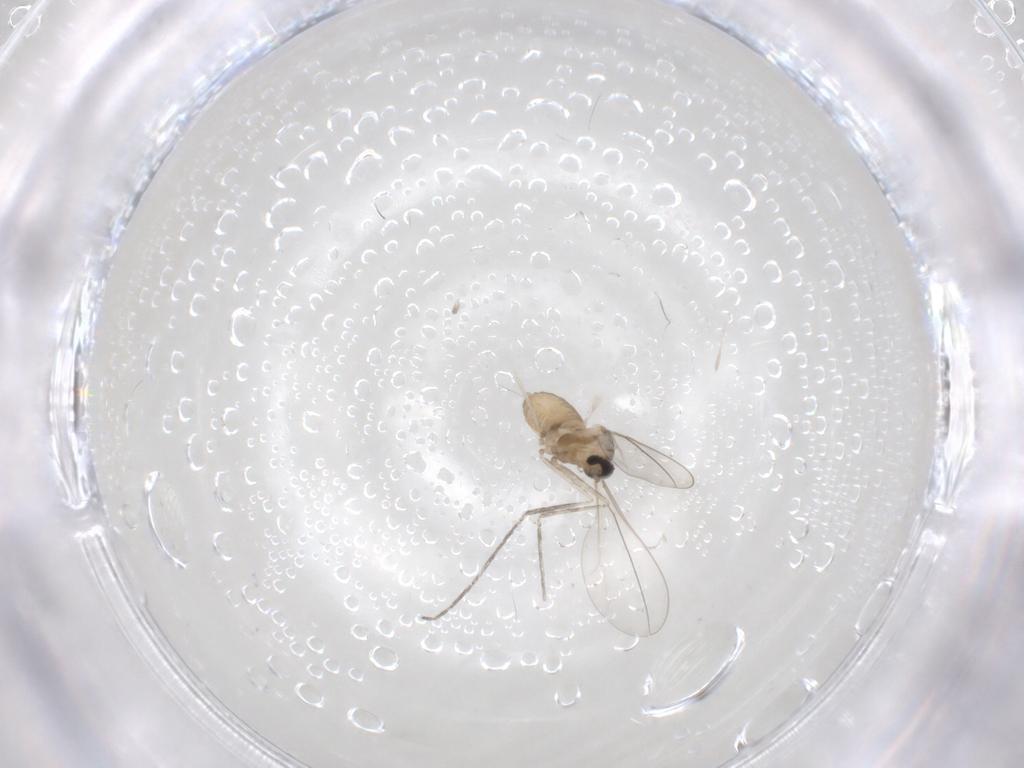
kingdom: Animalia
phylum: Arthropoda
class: Insecta
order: Diptera
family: Cecidomyiidae
